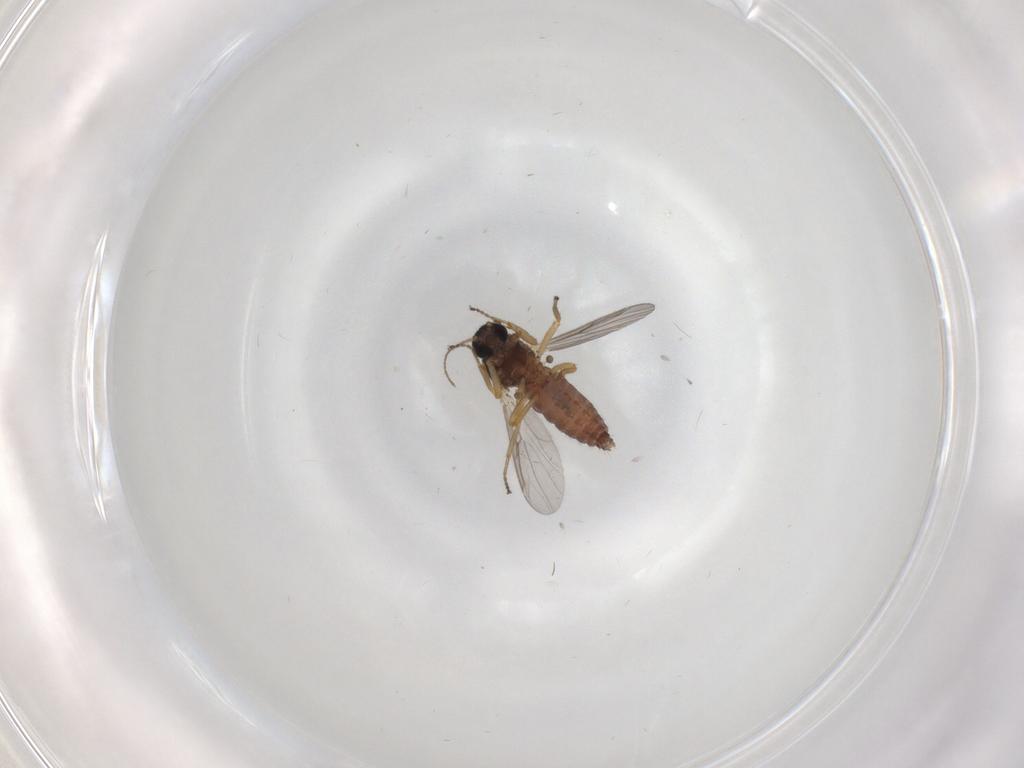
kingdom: Animalia
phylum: Arthropoda
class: Insecta
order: Diptera
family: Ceratopogonidae
